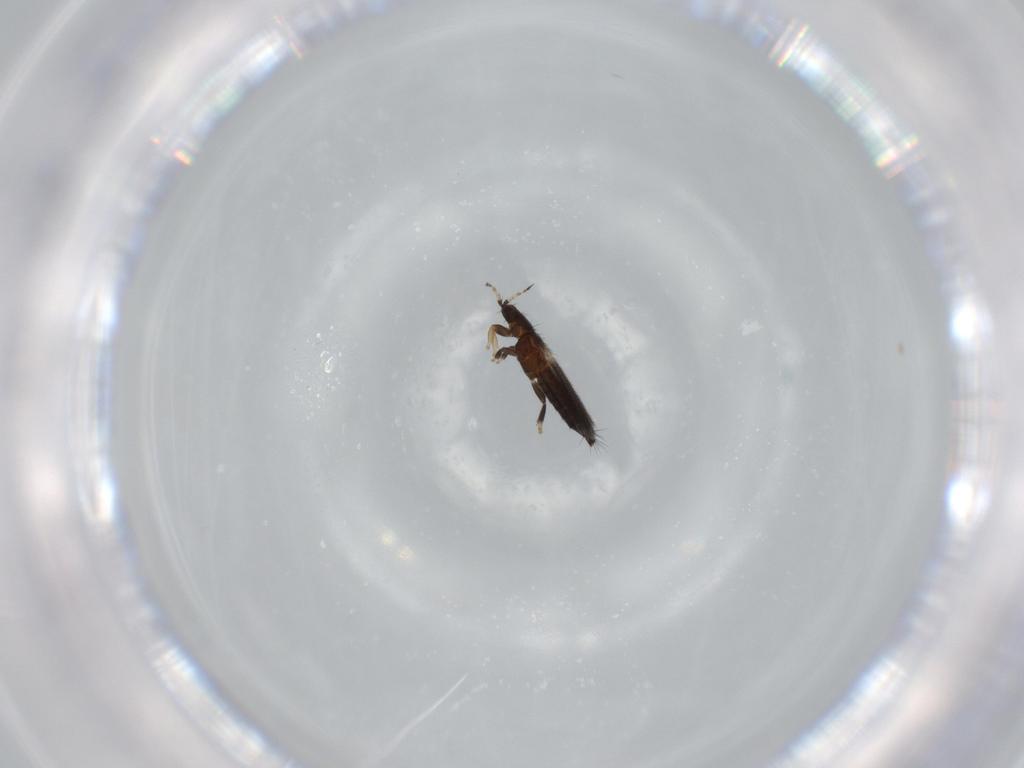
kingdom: Animalia
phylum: Arthropoda
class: Insecta
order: Thysanoptera
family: Thripidae
